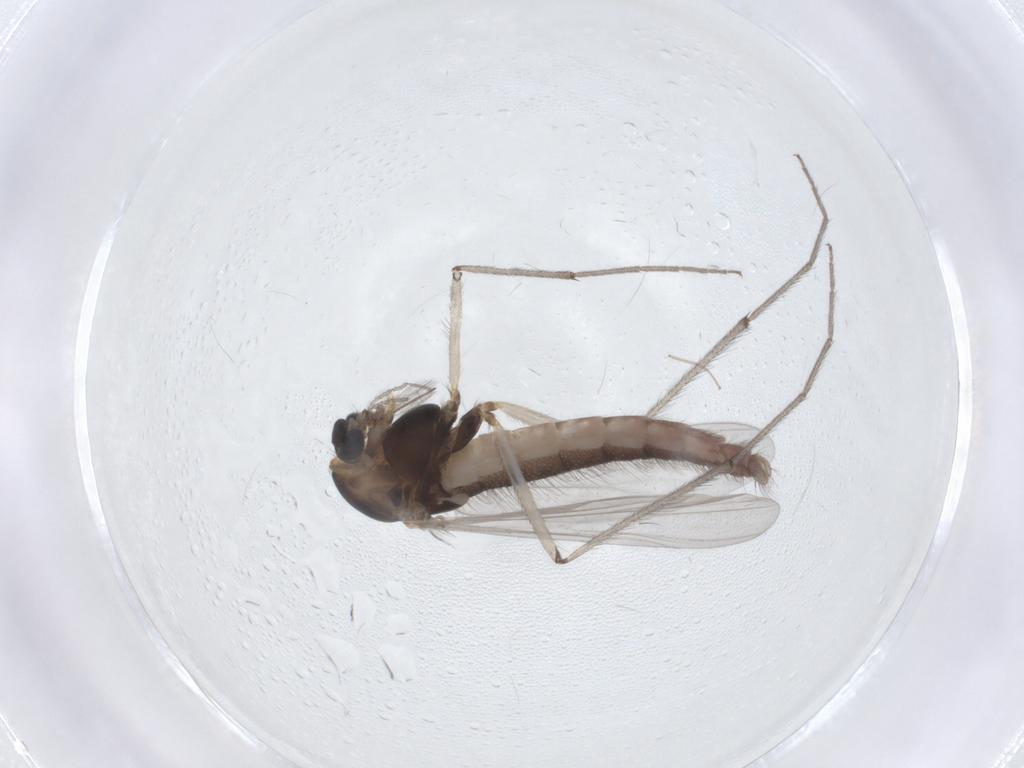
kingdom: Animalia
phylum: Arthropoda
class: Insecta
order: Diptera
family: Chironomidae
